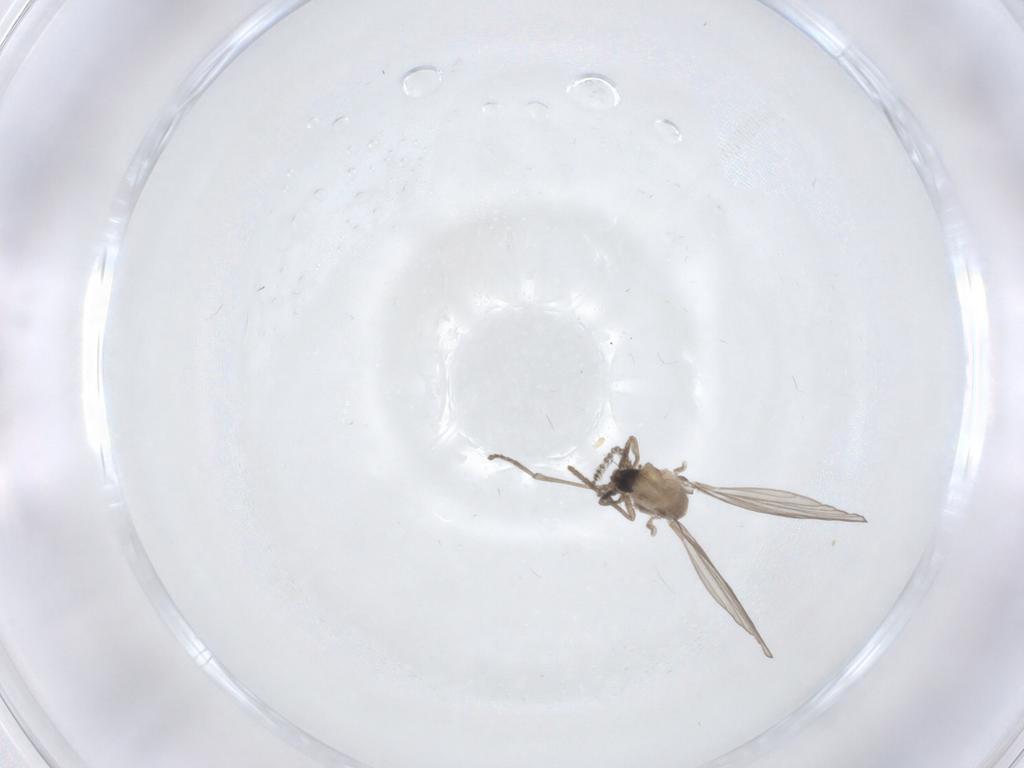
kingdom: Animalia
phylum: Arthropoda
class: Insecta
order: Diptera
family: Psychodidae
